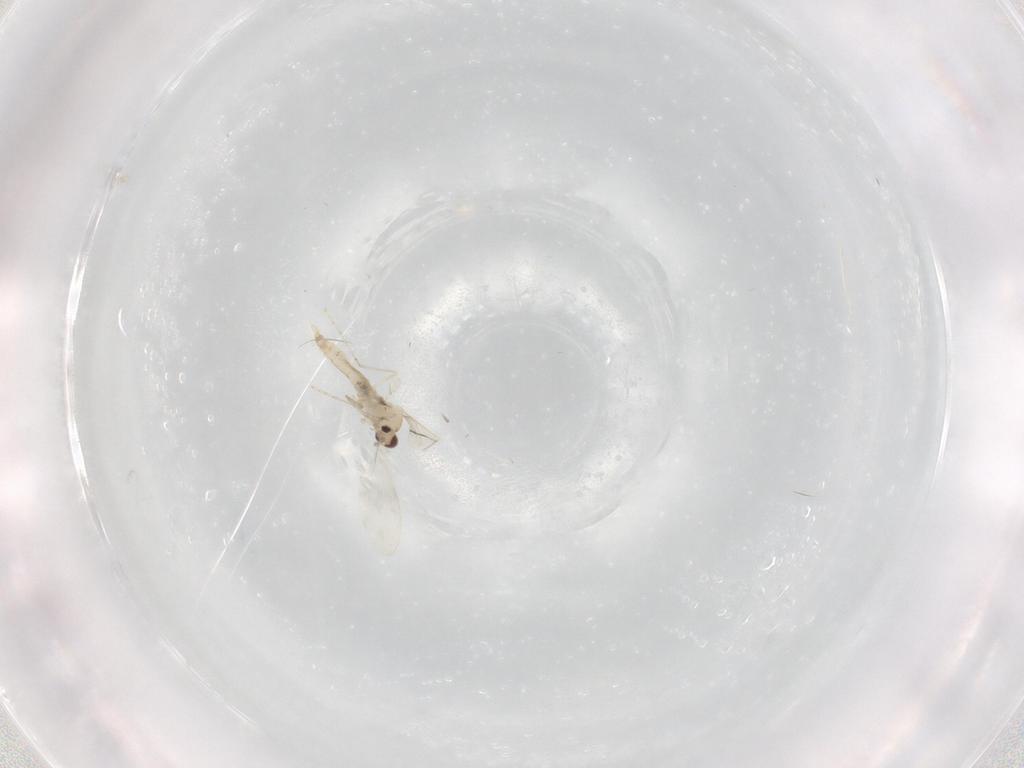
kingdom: Animalia
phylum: Arthropoda
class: Insecta
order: Diptera
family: Cecidomyiidae
